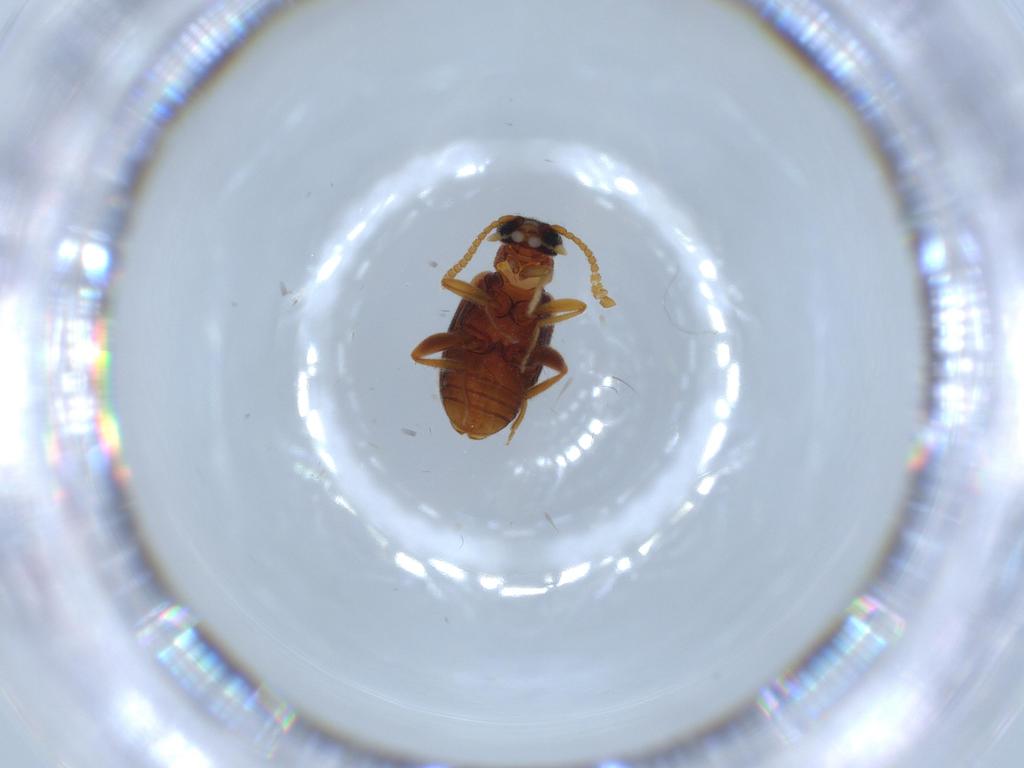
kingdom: Animalia
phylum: Arthropoda
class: Insecta
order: Coleoptera
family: Aderidae
